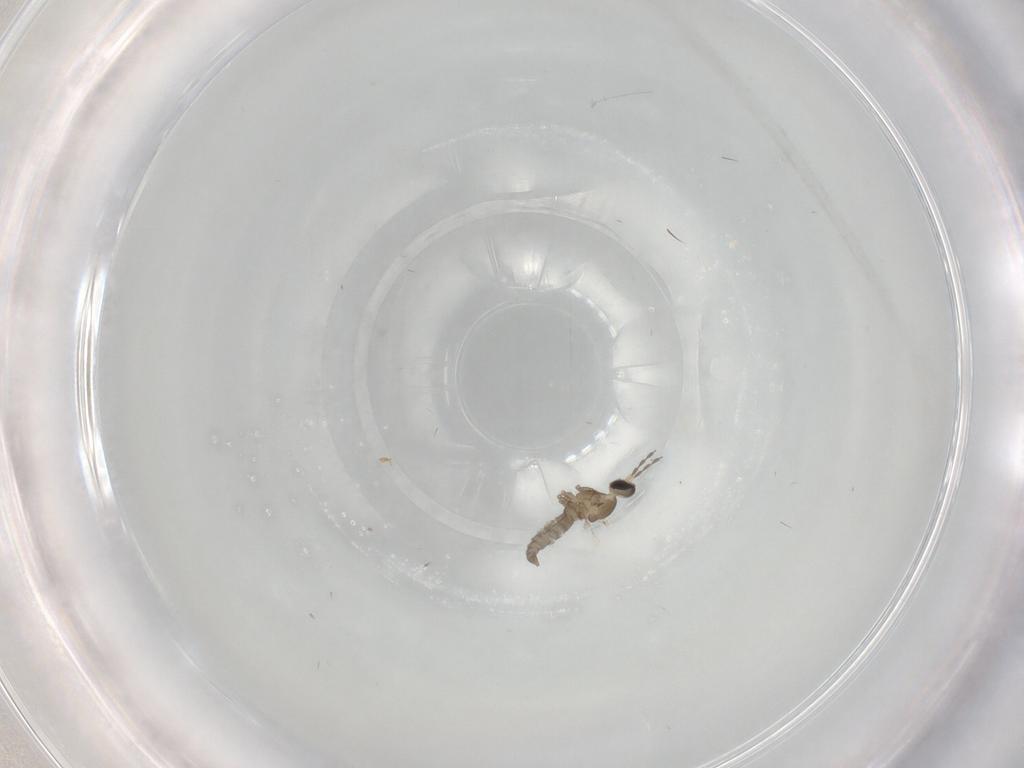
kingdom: Animalia
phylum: Arthropoda
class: Insecta
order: Diptera
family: Cecidomyiidae
